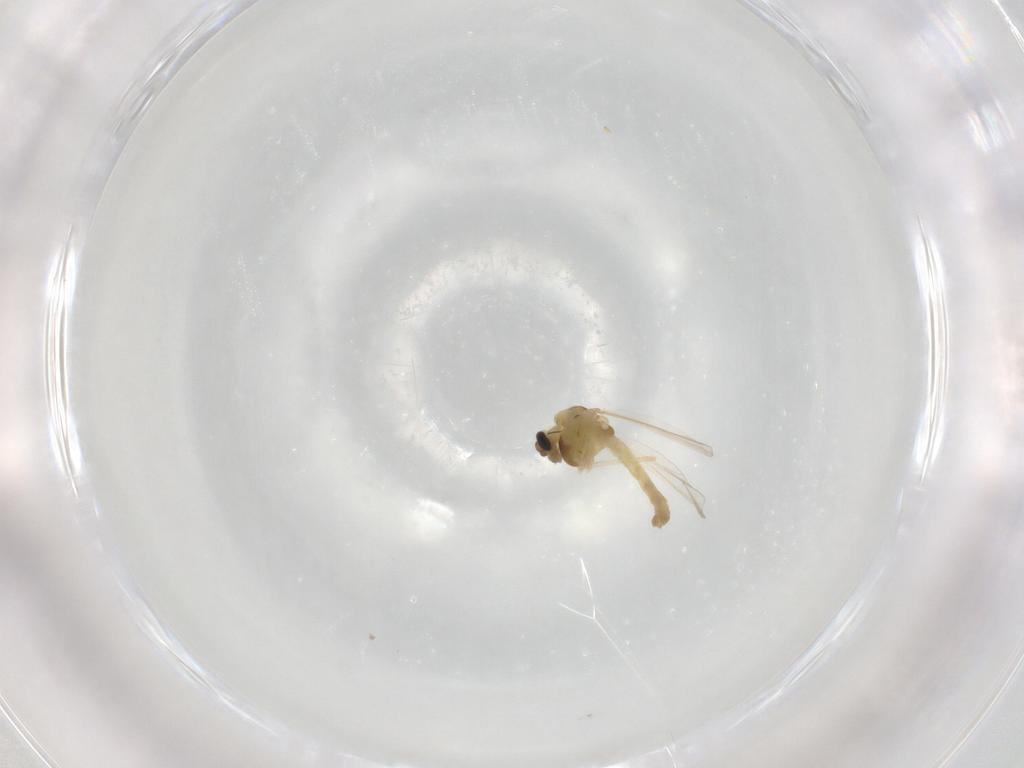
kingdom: Animalia
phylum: Arthropoda
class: Insecta
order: Diptera
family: Chironomidae
